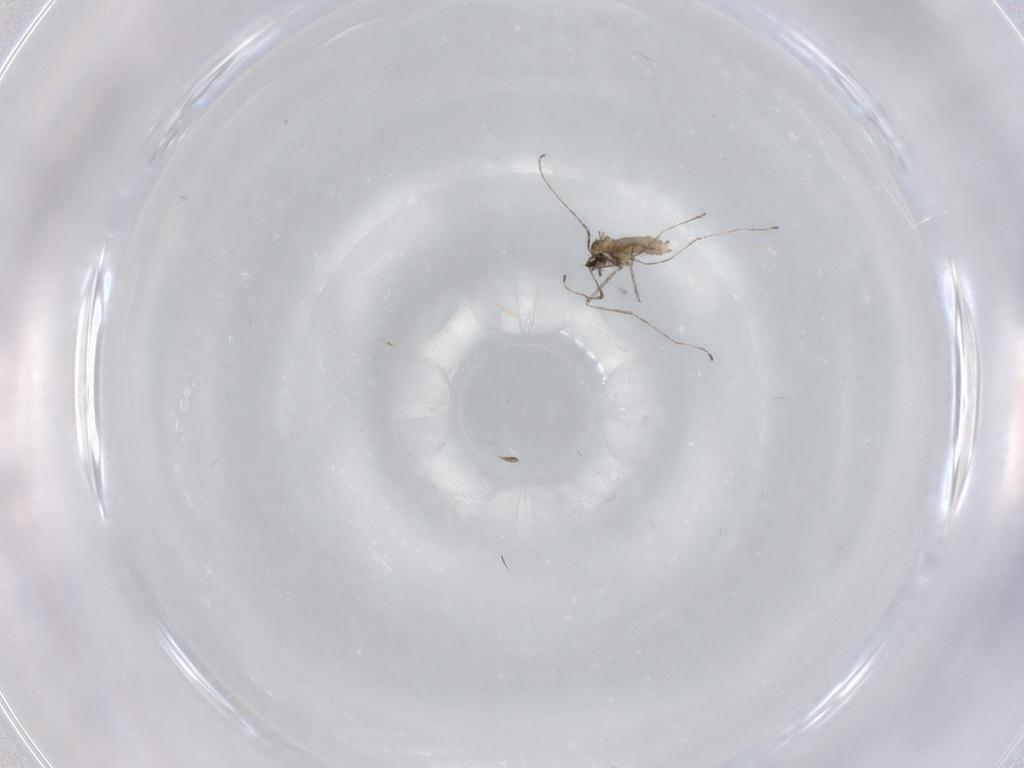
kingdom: Animalia
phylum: Arthropoda
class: Insecta
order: Diptera
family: Cecidomyiidae
